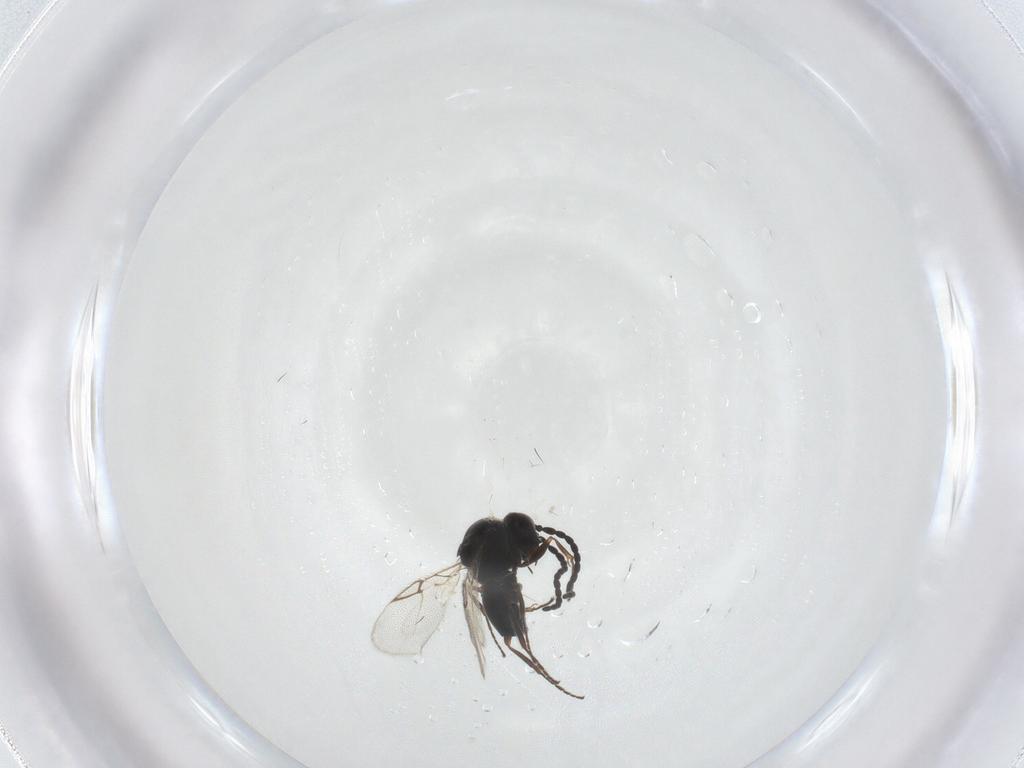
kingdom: Animalia
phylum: Arthropoda
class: Insecta
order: Hymenoptera
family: Figitidae
